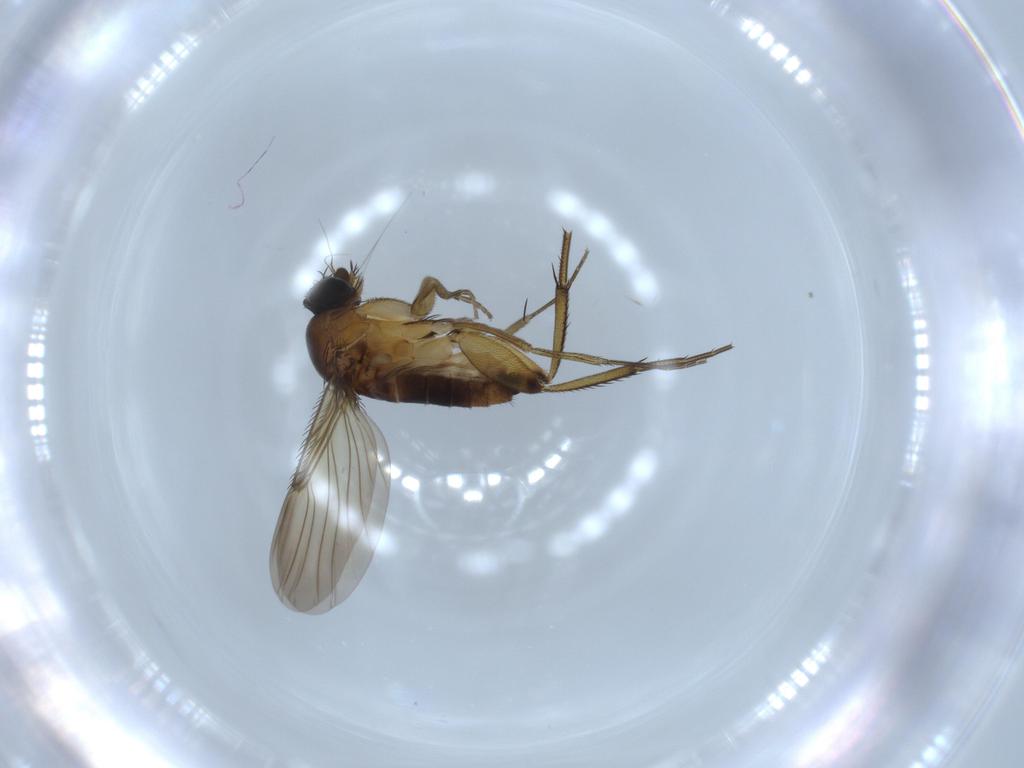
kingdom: Animalia
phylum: Arthropoda
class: Insecta
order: Diptera
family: Phoridae
